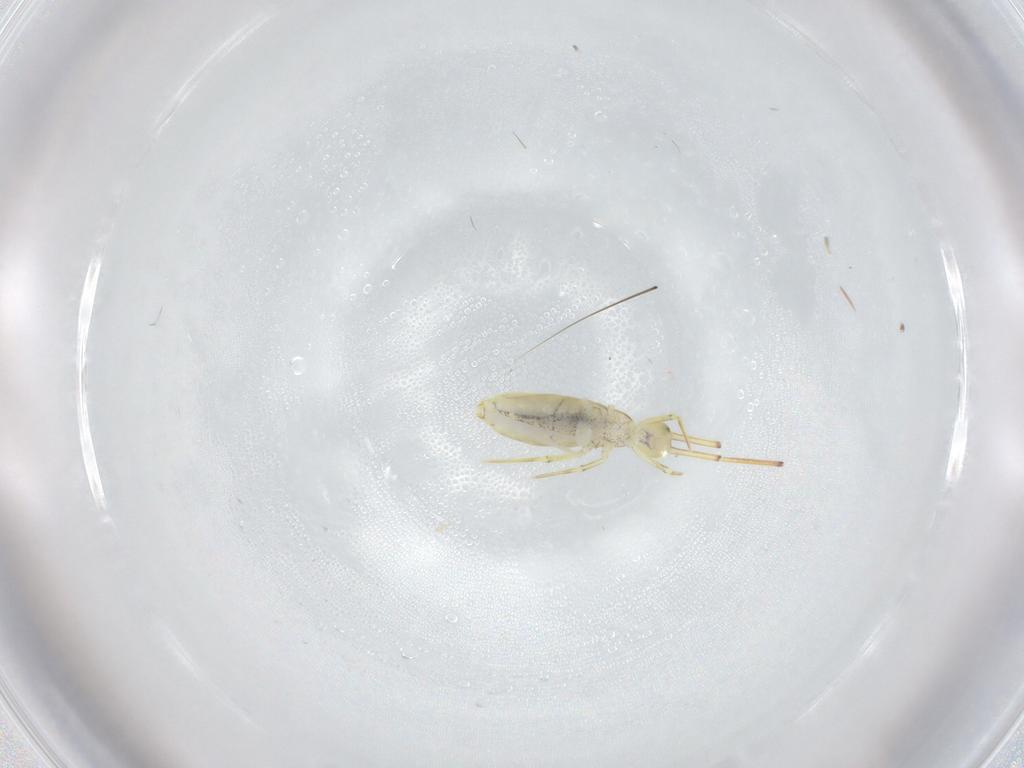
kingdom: Animalia
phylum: Arthropoda
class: Collembola
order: Entomobryomorpha
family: Entomobryidae
